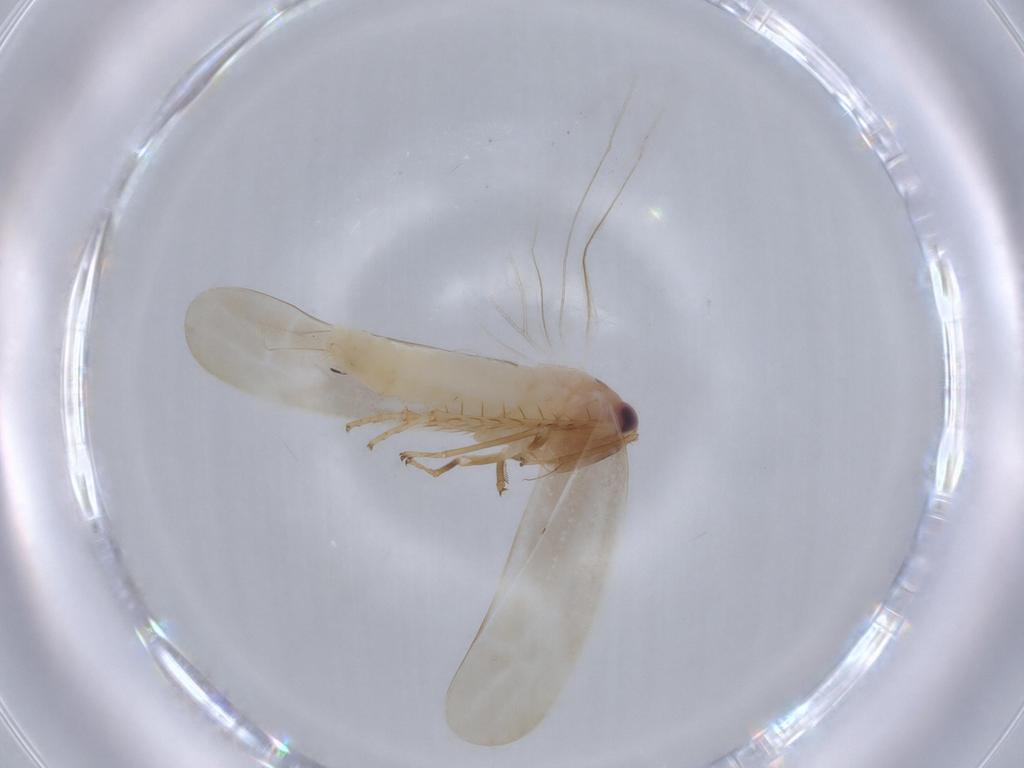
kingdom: Animalia
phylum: Arthropoda
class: Insecta
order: Hemiptera
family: Cicadellidae
